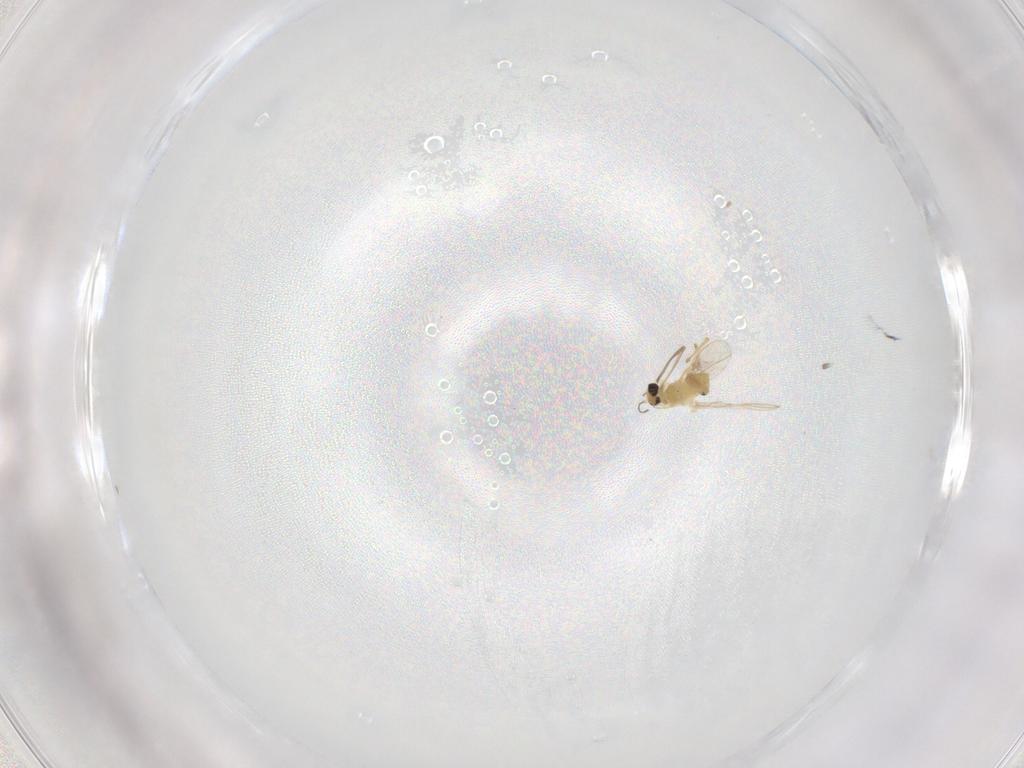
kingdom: Animalia
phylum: Arthropoda
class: Insecta
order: Diptera
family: Chironomidae
